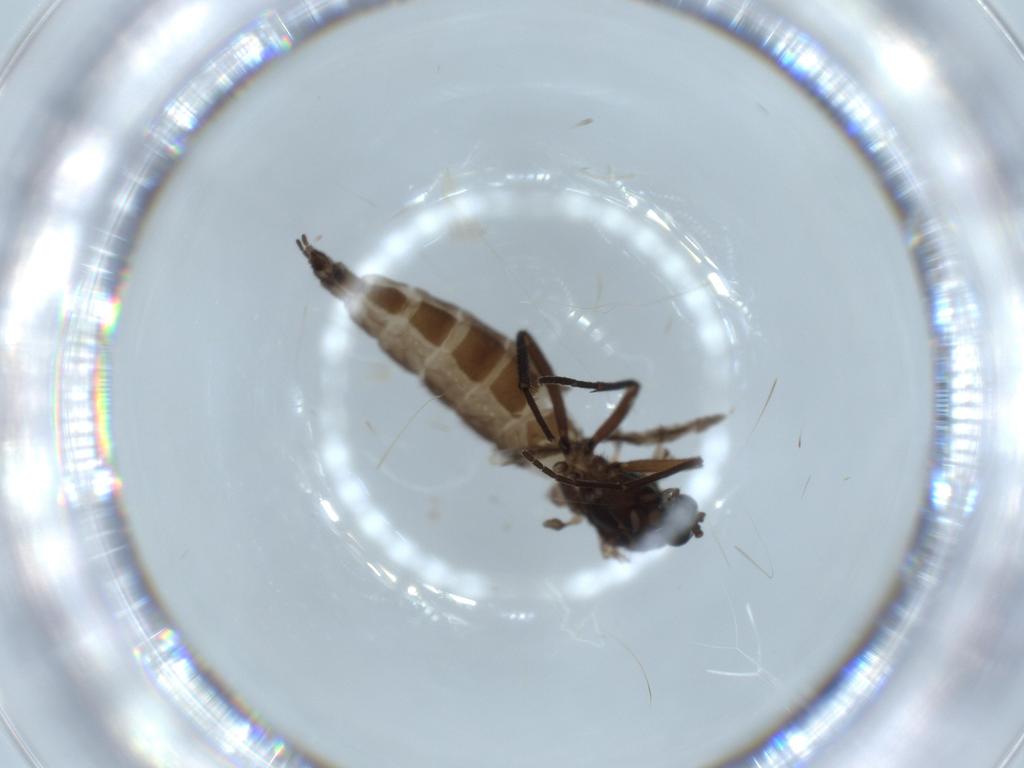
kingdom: Animalia
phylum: Arthropoda
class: Insecta
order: Diptera
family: Sciaridae
